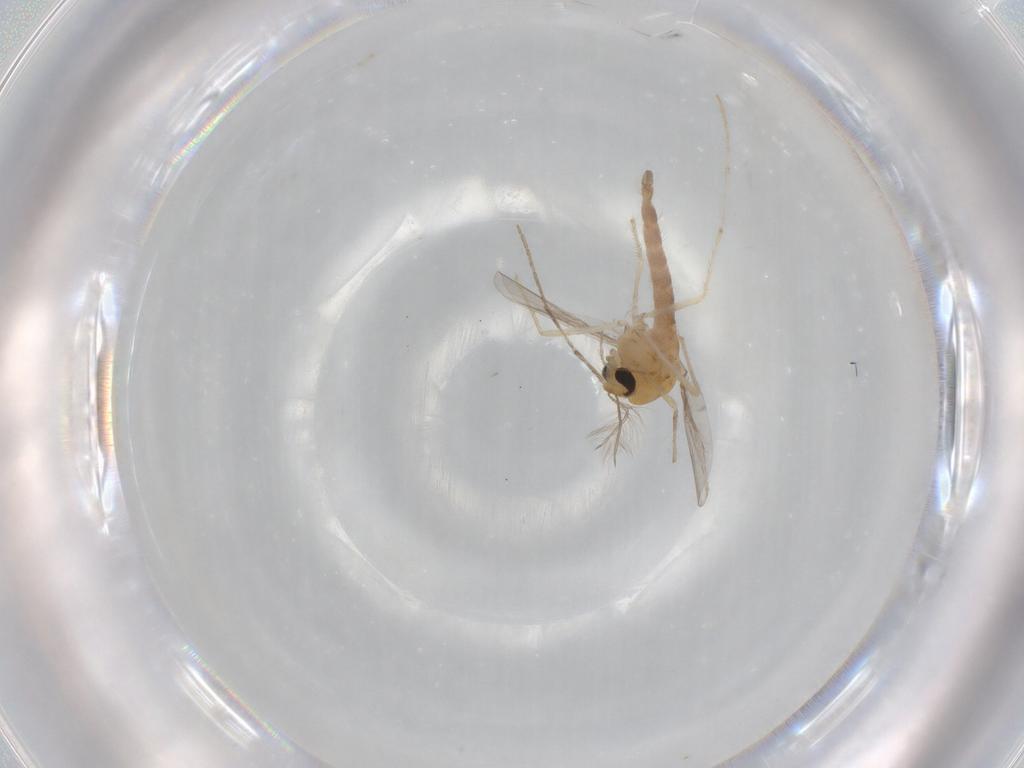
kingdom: Animalia
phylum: Arthropoda
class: Insecta
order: Diptera
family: Chironomidae
